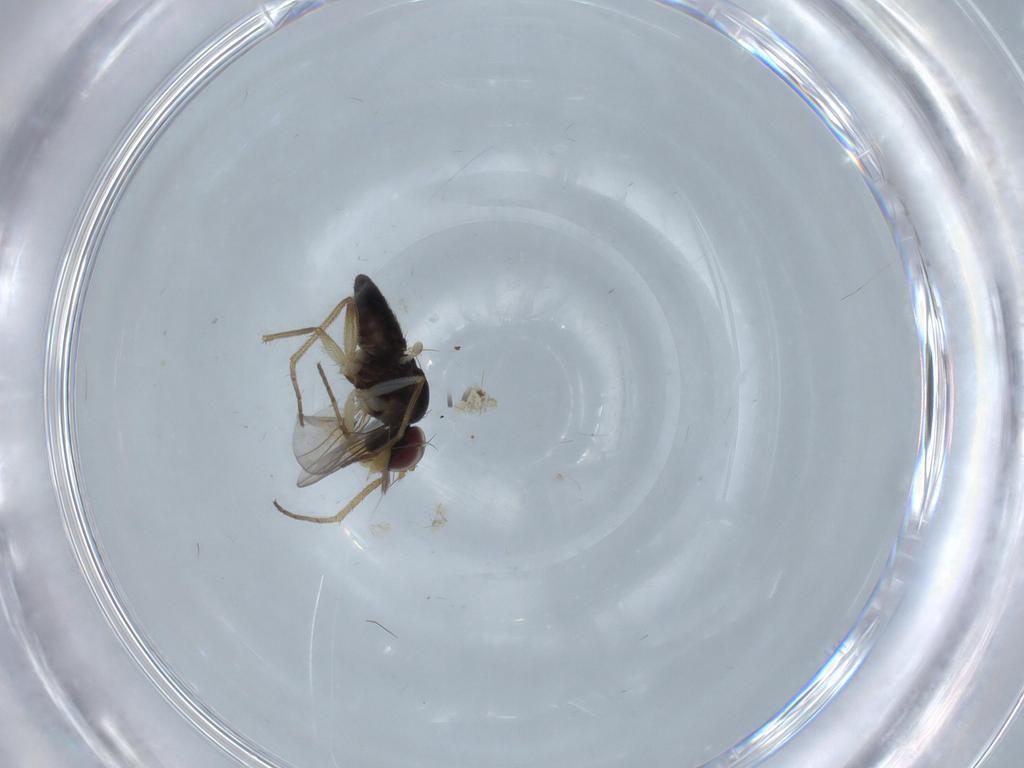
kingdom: Animalia
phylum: Arthropoda
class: Insecta
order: Diptera
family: Dolichopodidae
